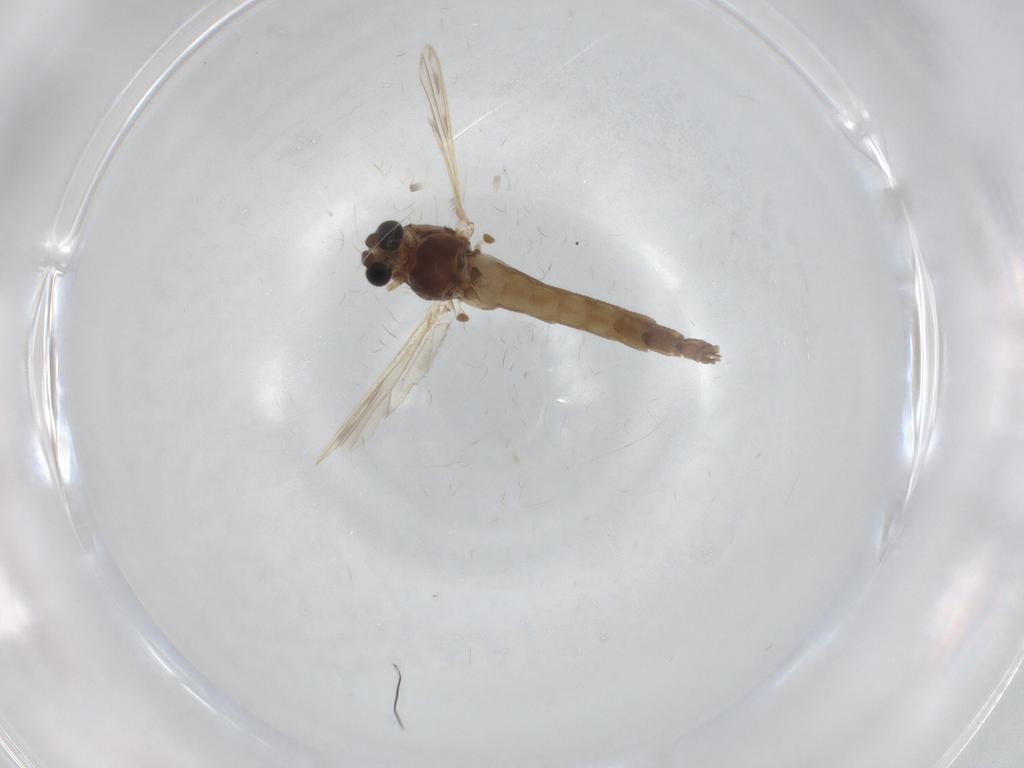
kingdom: Animalia
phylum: Arthropoda
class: Insecta
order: Diptera
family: Chironomidae
